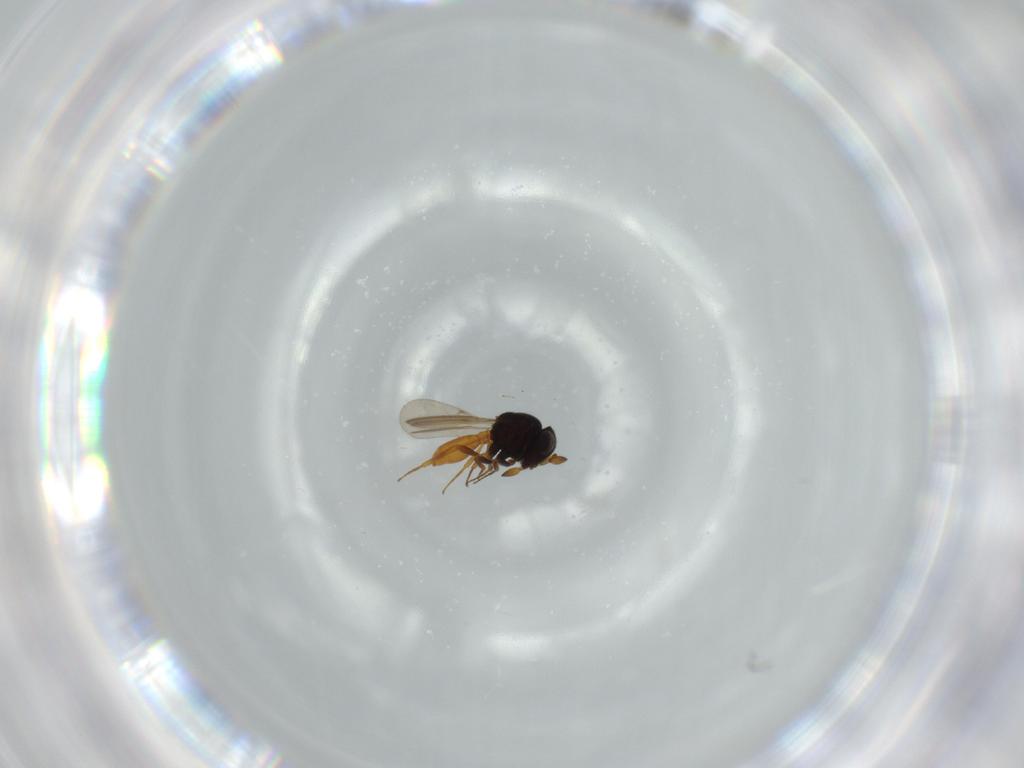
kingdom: Animalia
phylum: Arthropoda
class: Insecta
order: Hymenoptera
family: Scelionidae
